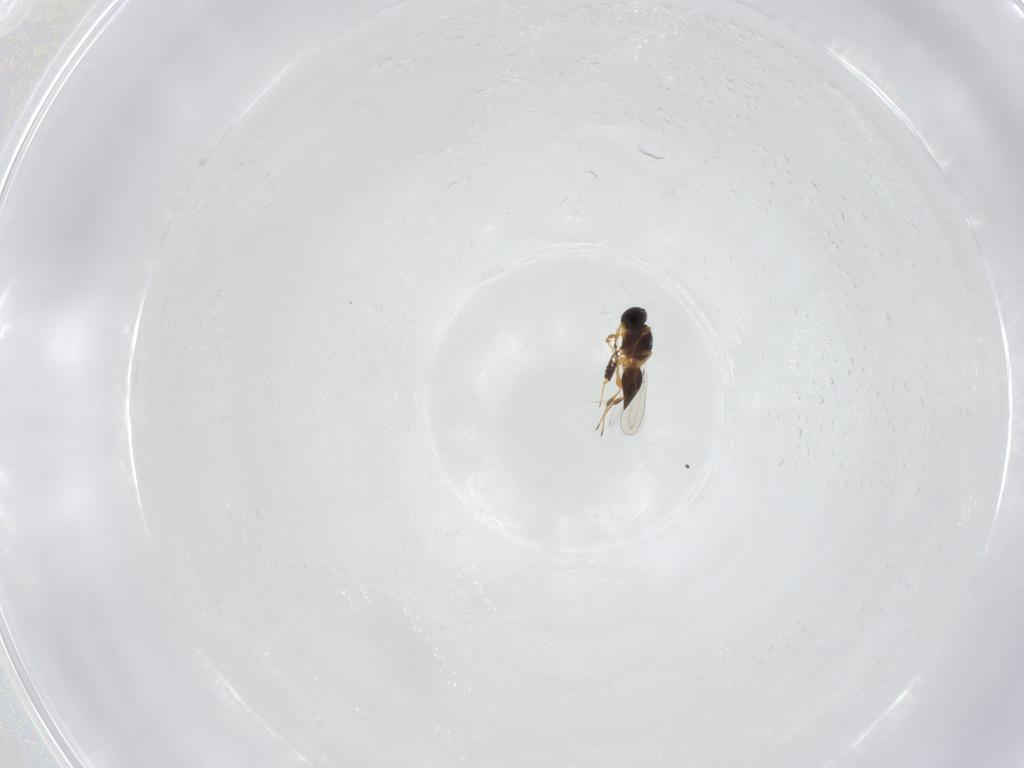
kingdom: Animalia
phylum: Arthropoda
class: Insecta
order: Hymenoptera
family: Platygastridae
